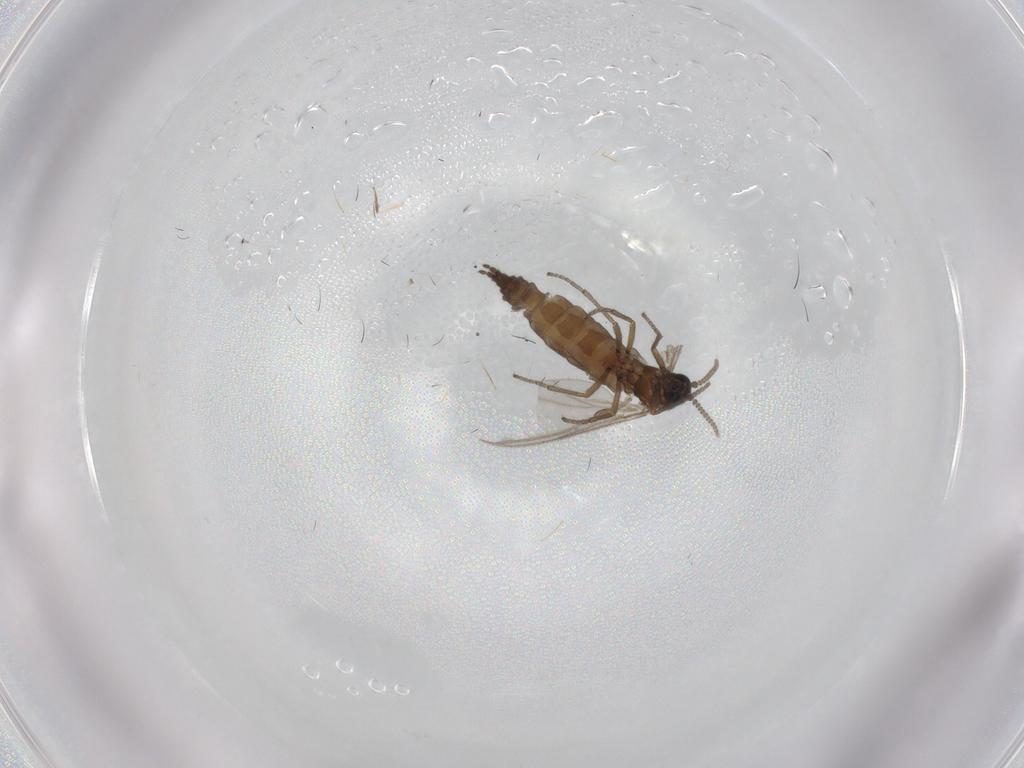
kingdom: Animalia
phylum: Arthropoda
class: Insecta
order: Diptera
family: Sciaridae
